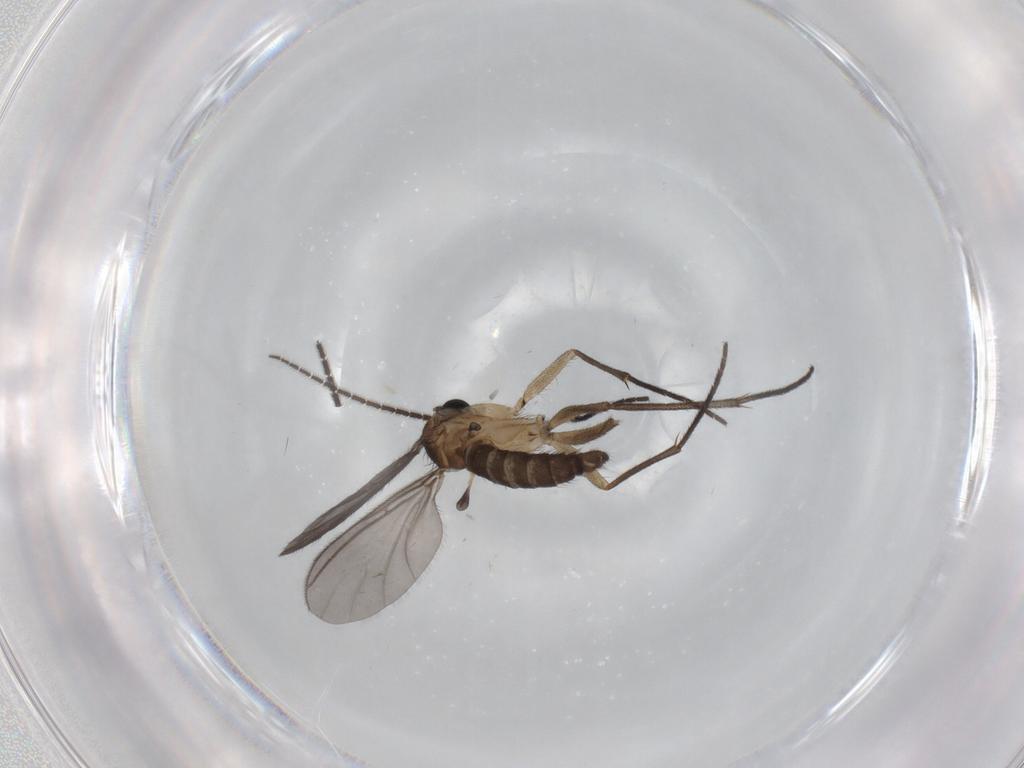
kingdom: Animalia
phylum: Arthropoda
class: Insecta
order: Diptera
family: Sciaridae
